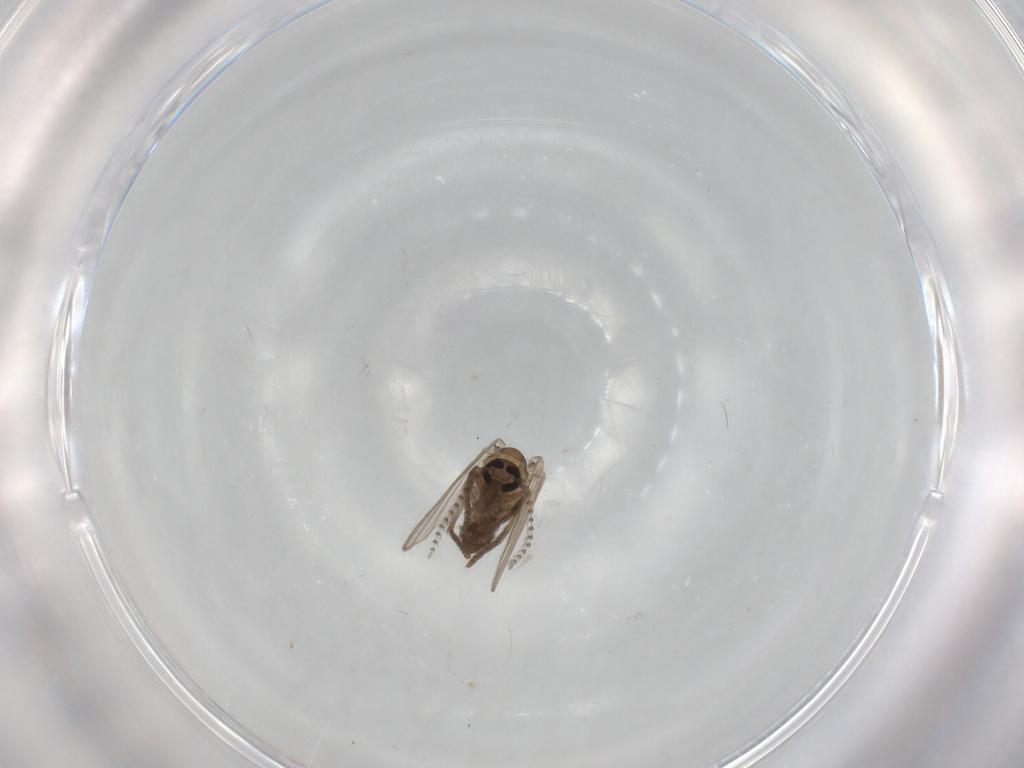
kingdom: Animalia
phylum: Arthropoda
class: Insecta
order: Diptera
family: Psychodidae
